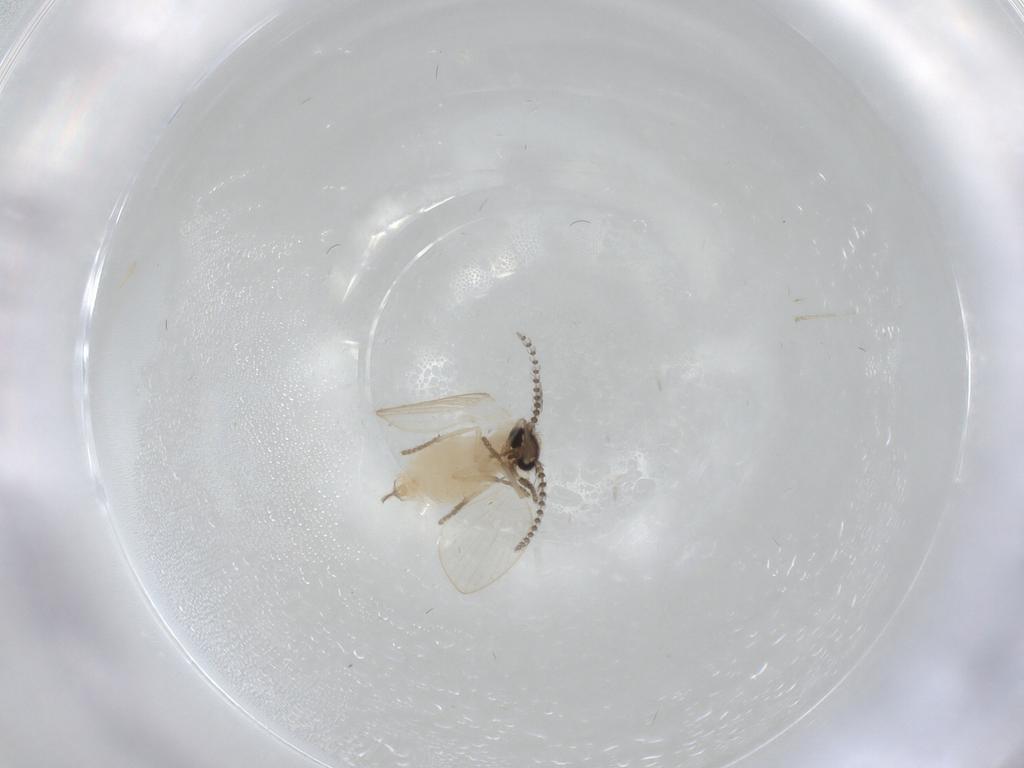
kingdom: Animalia
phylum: Arthropoda
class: Insecta
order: Diptera
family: Psychodidae
